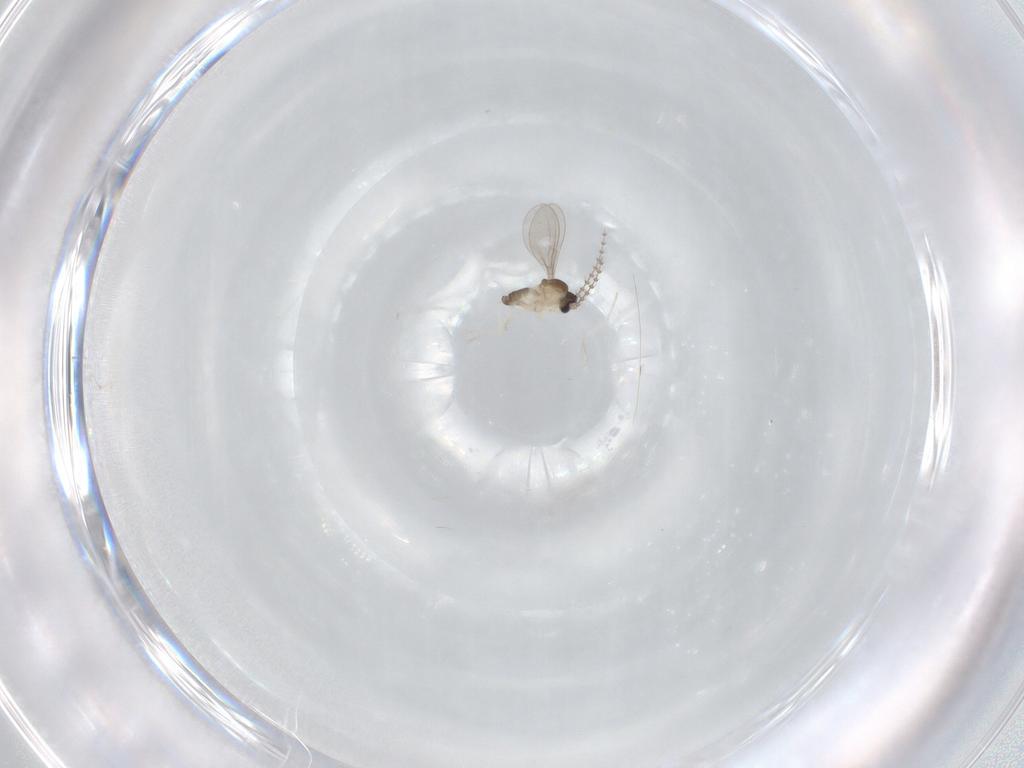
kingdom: Animalia
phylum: Arthropoda
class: Insecta
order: Diptera
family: Cecidomyiidae
